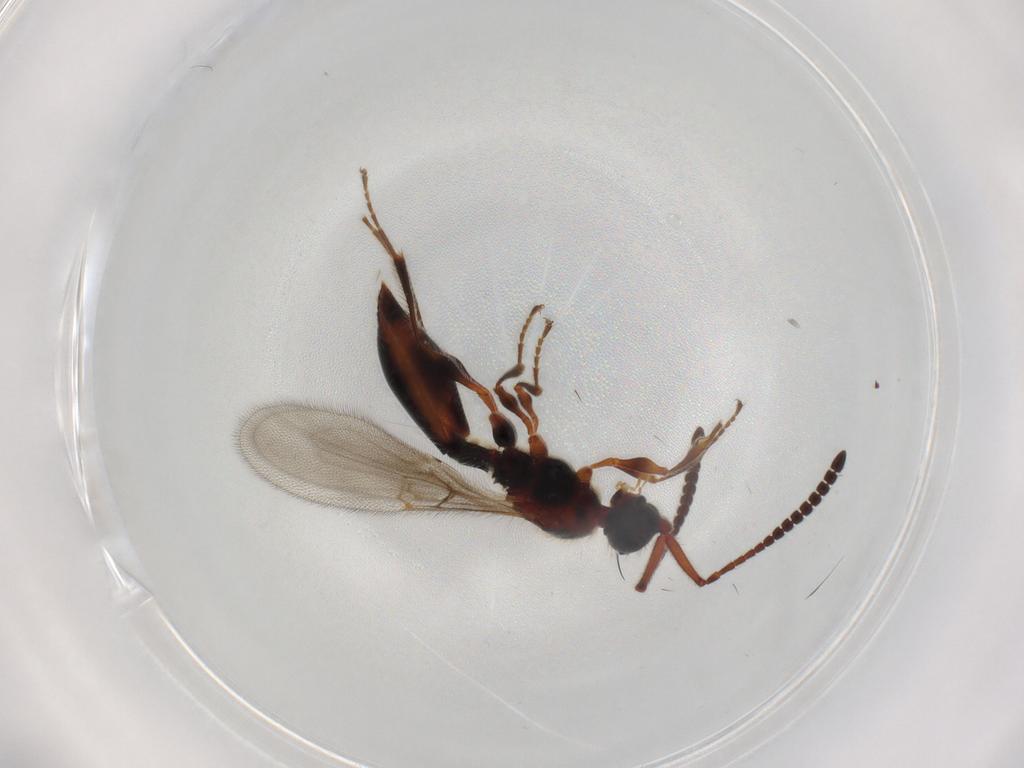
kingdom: Animalia
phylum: Arthropoda
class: Insecta
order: Hymenoptera
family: Diapriidae
